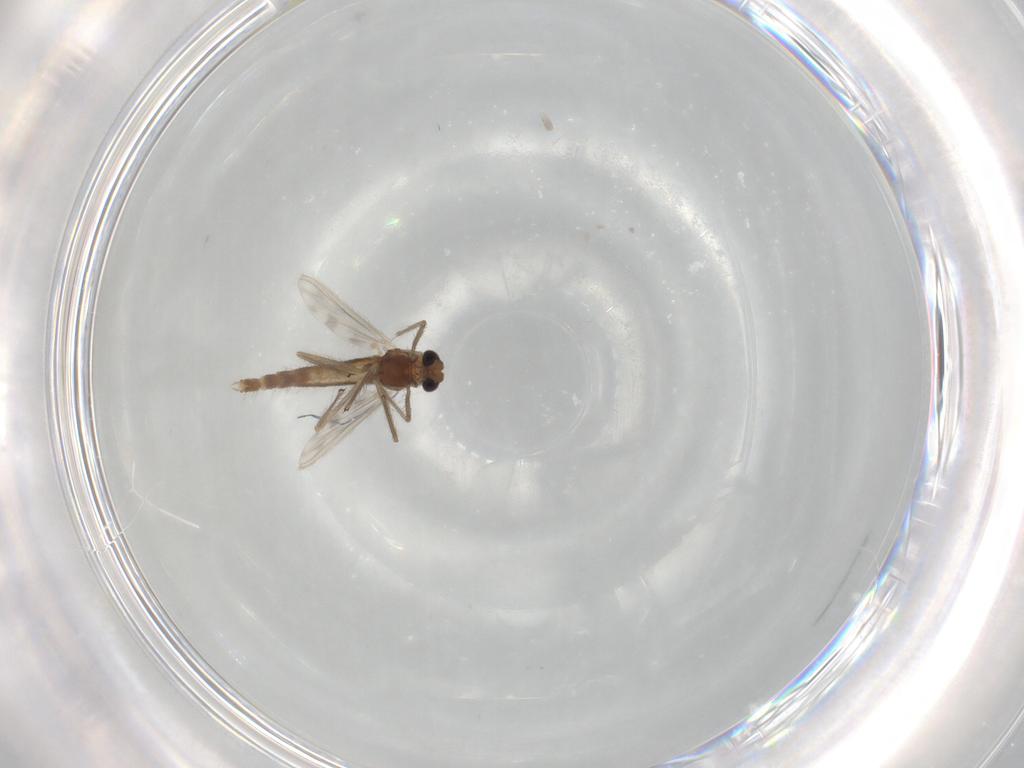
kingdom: Animalia
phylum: Arthropoda
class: Insecta
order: Diptera
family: Chironomidae
